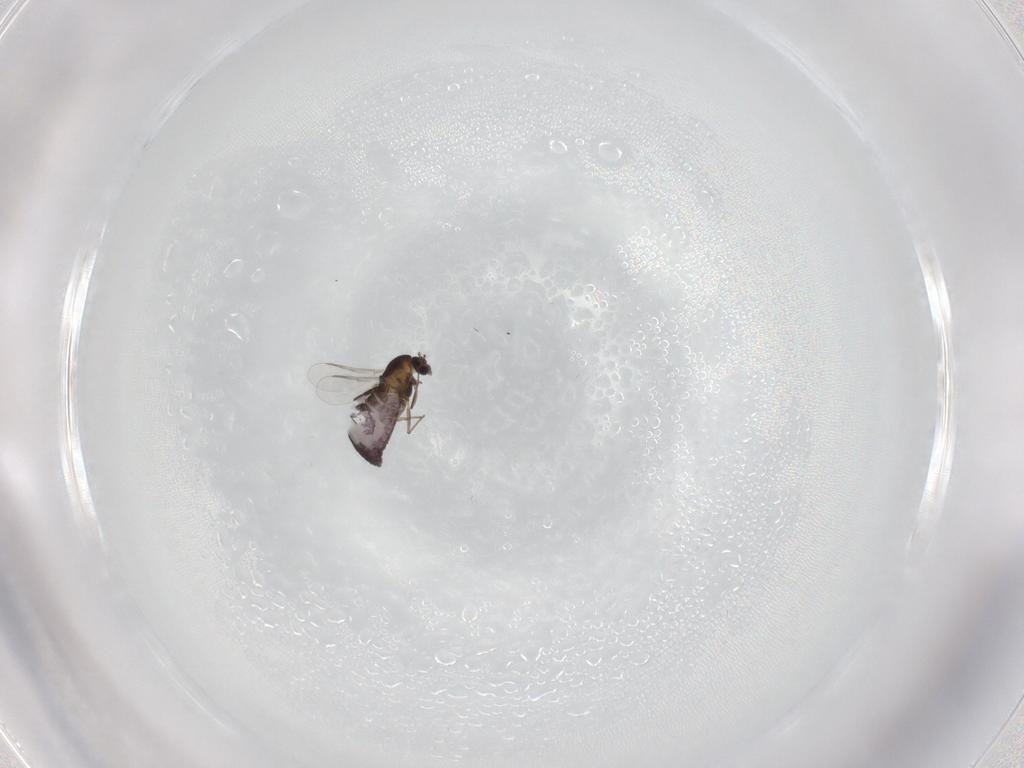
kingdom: Animalia
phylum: Arthropoda
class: Insecta
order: Diptera
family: Chironomidae
